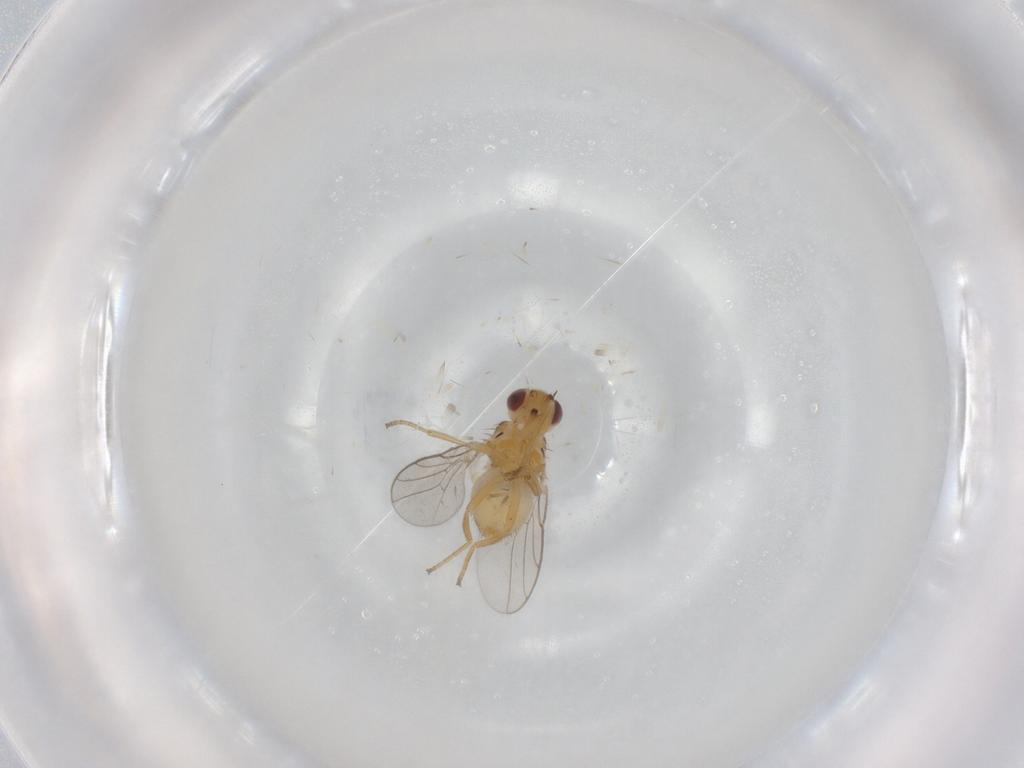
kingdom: Animalia
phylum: Arthropoda
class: Insecta
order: Diptera
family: Chloropidae
